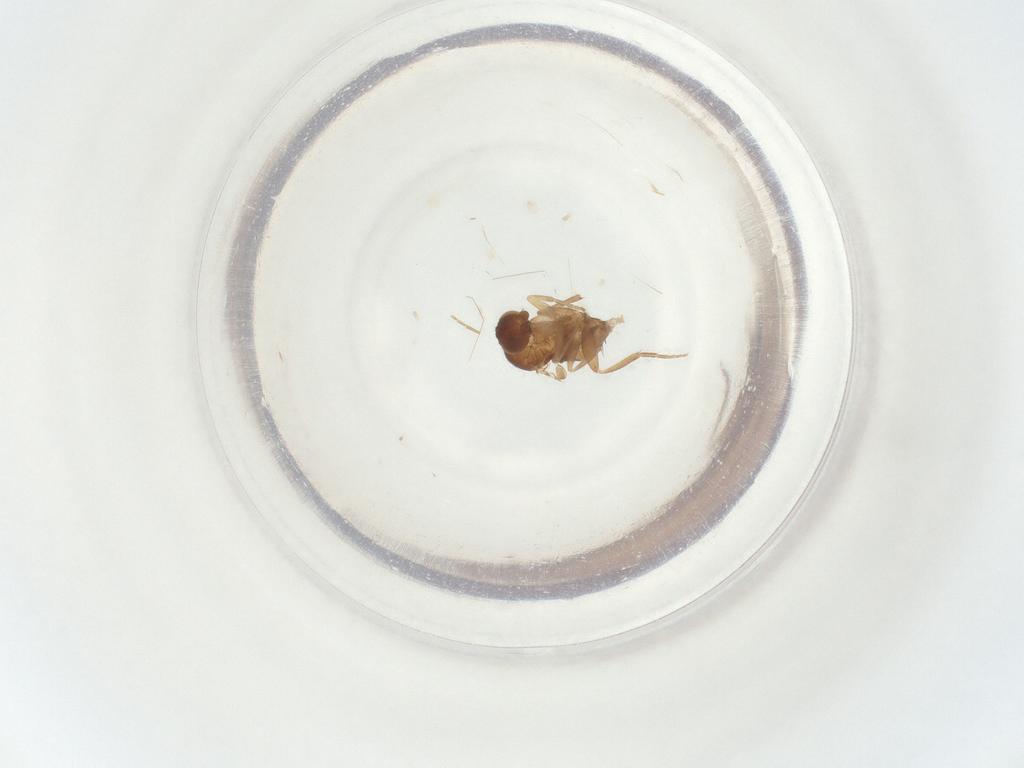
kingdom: Animalia
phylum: Arthropoda
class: Insecta
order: Diptera
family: Phoridae
